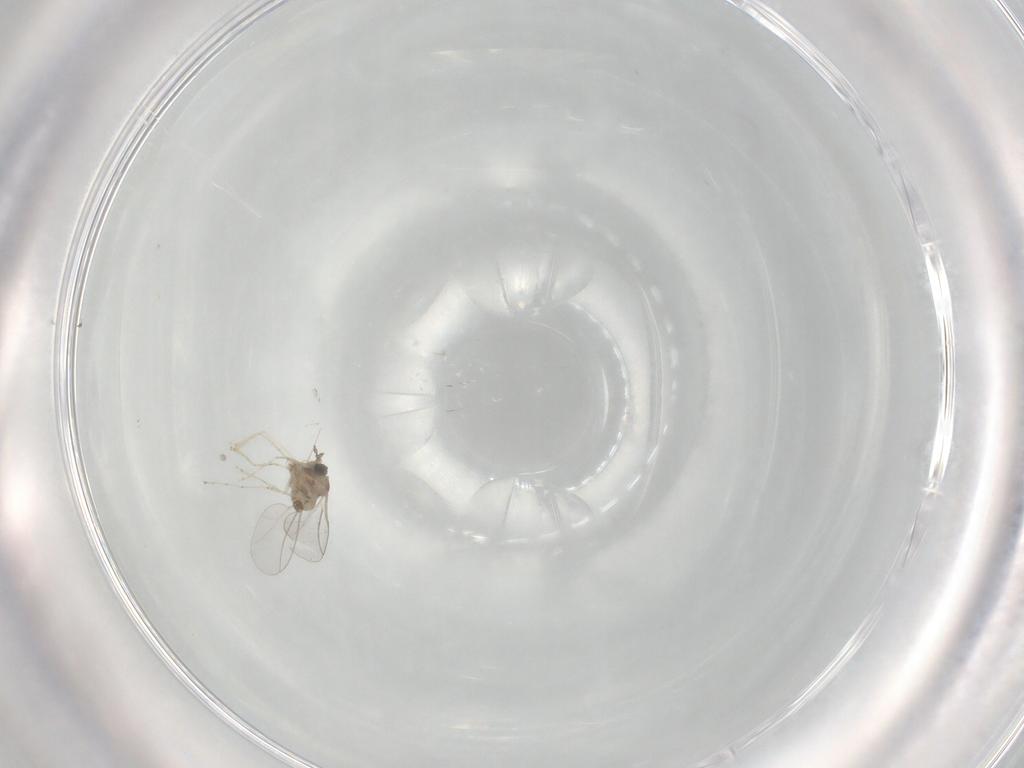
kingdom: Animalia
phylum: Arthropoda
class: Insecta
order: Diptera
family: Cecidomyiidae
